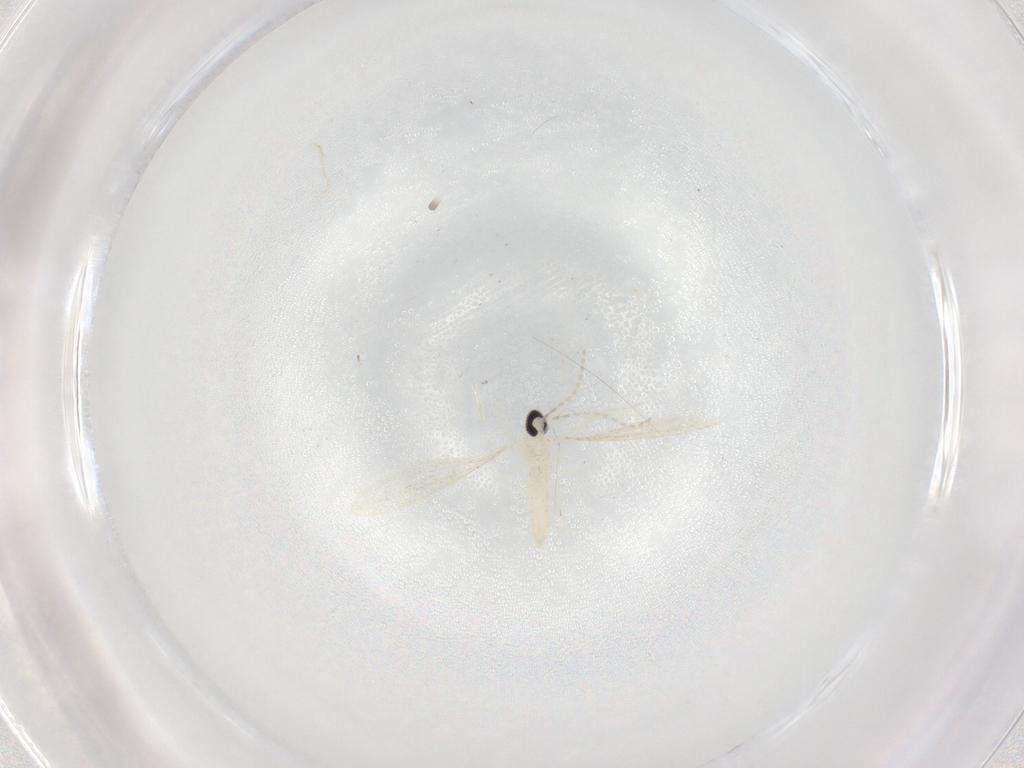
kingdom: Animalia
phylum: Arthropoda
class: Insecta
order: Diptera
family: Cecidomyiidae
